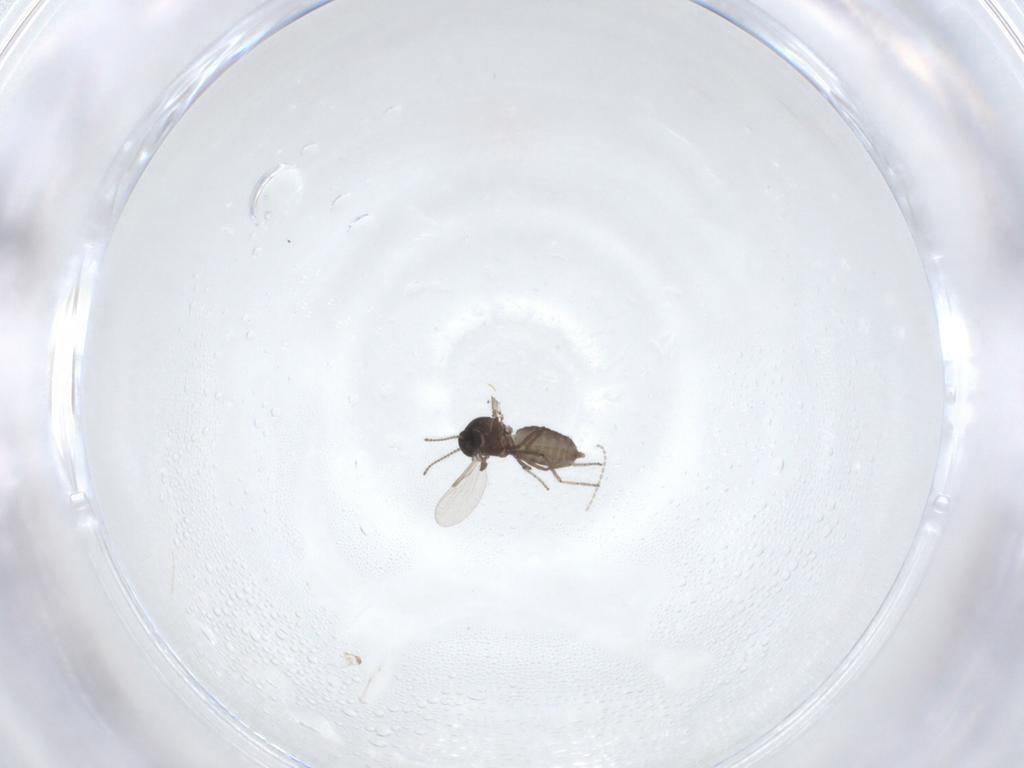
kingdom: Animalia
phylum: Arthropoda
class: Insecta
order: Diptera
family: Ceratopogonidae
